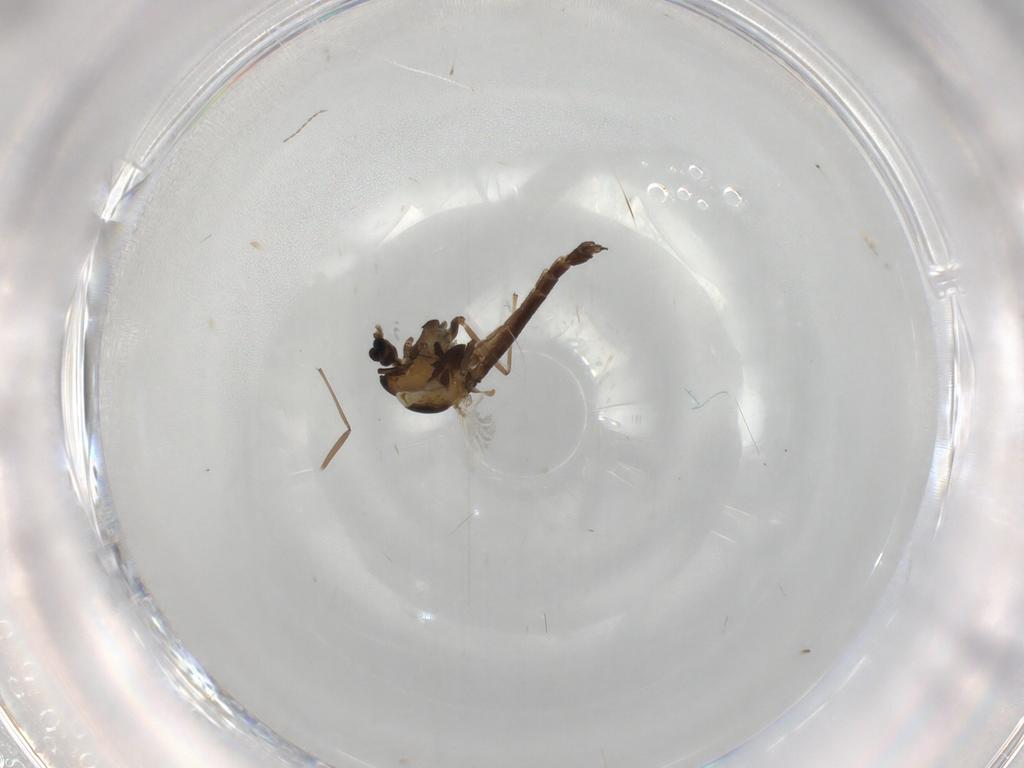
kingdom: Animalia
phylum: Arthropoda
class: Insecta
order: Diptera
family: Chironomidae
